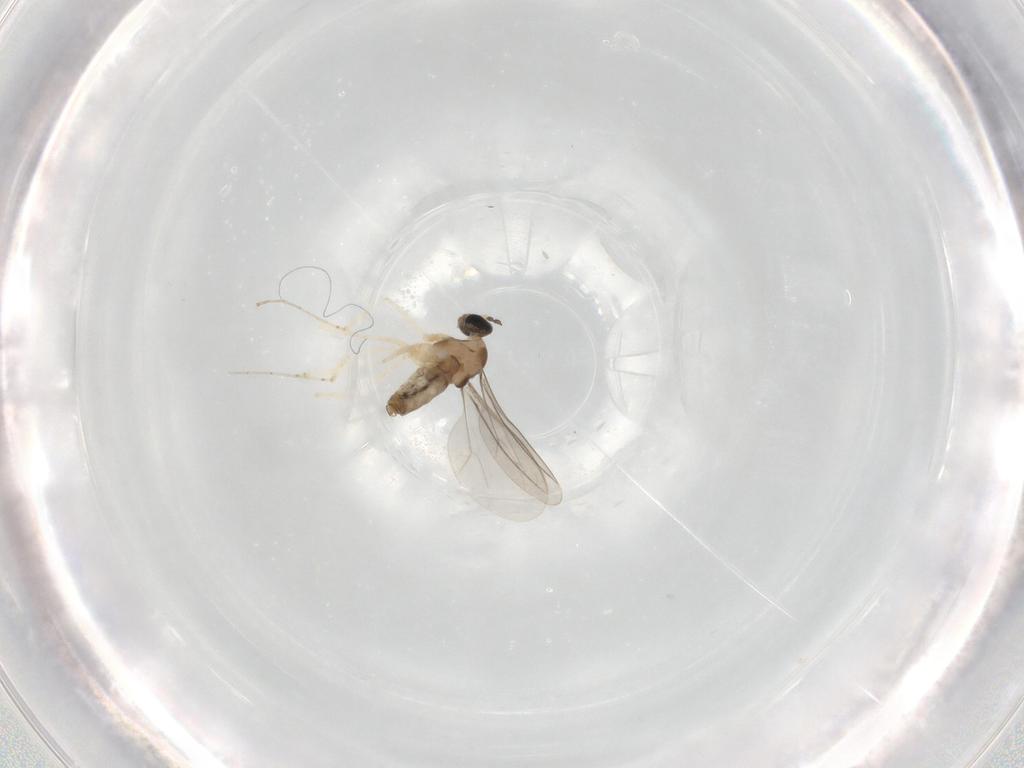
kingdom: Animalia
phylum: Arthropoda
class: Insecta
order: Diptera
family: Cecidomyiidae
